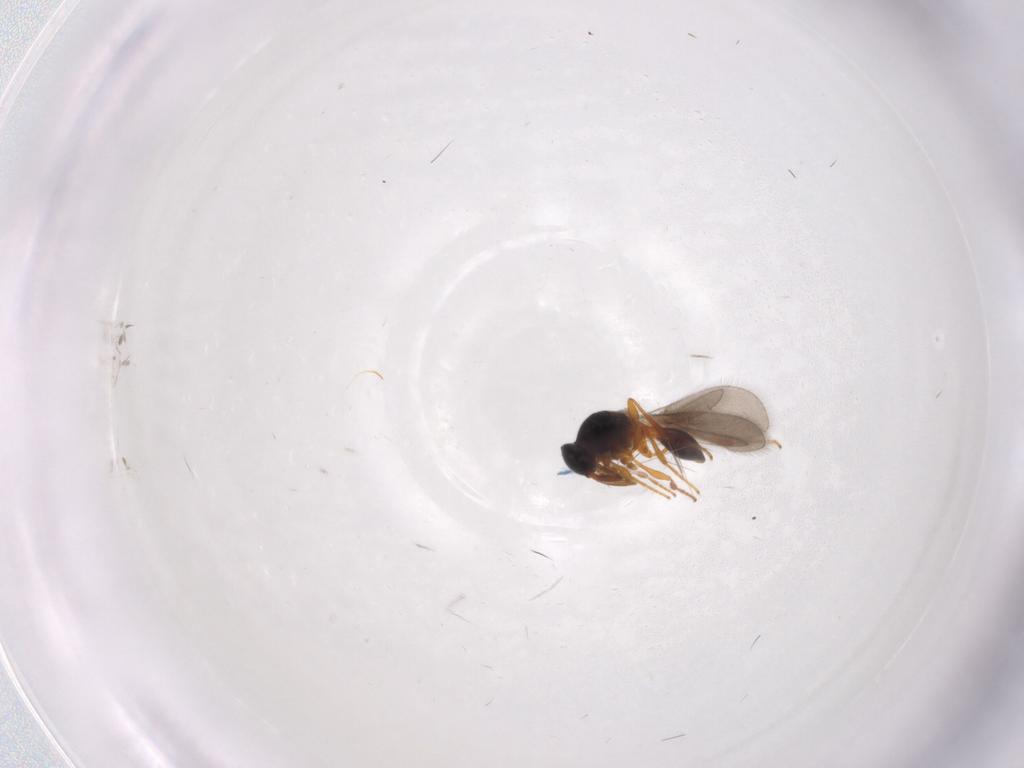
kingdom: Animalia
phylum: Arthropoda
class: Insecta
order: Hymenoptera
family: Platygastridae
